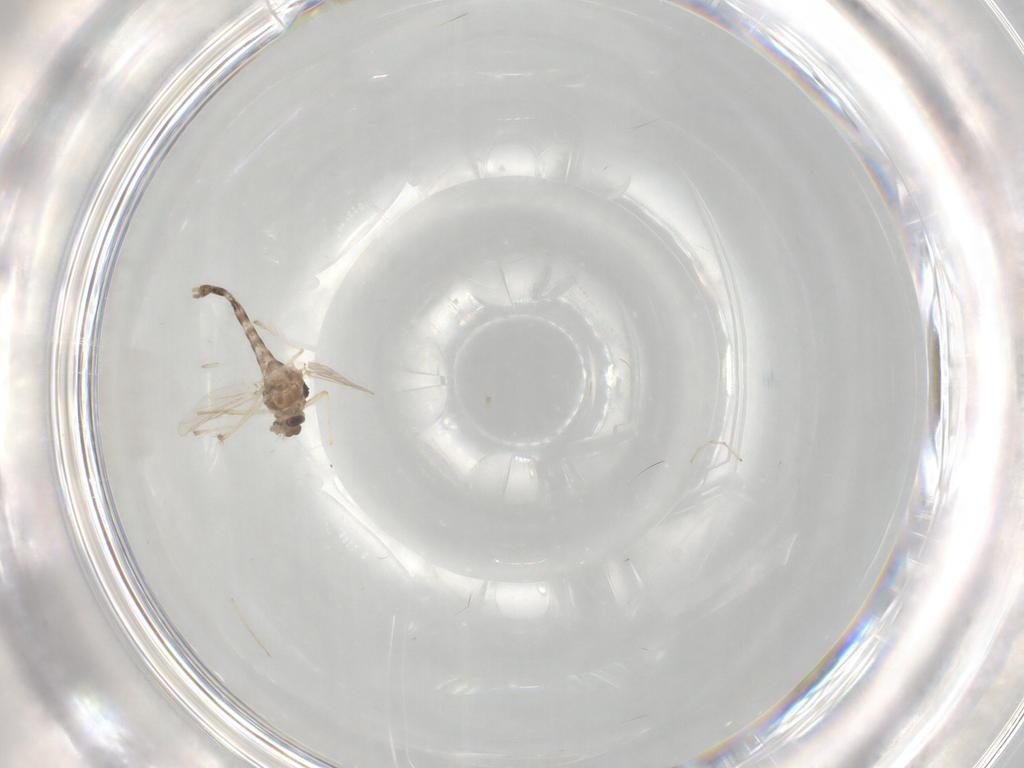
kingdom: Animalia
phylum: Arthropoda
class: Insecta
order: Diptera
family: Chironomidae
